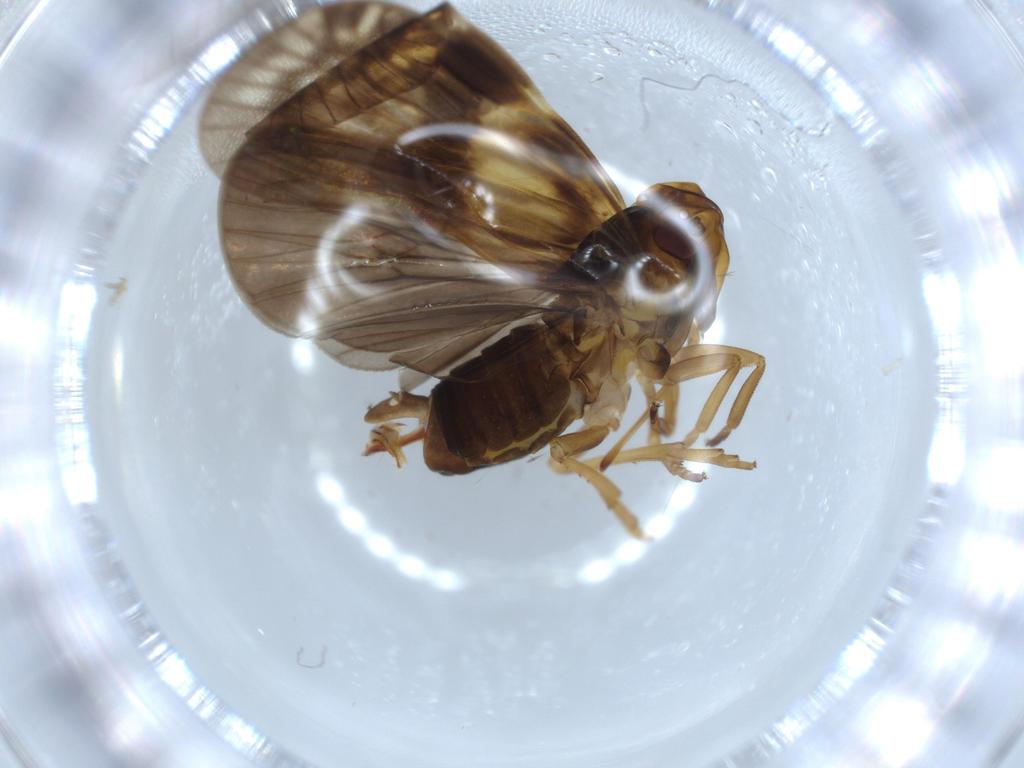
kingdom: Animalia
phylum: Arthropoda
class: Insecta
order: Hemiptera
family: Cixiidae
